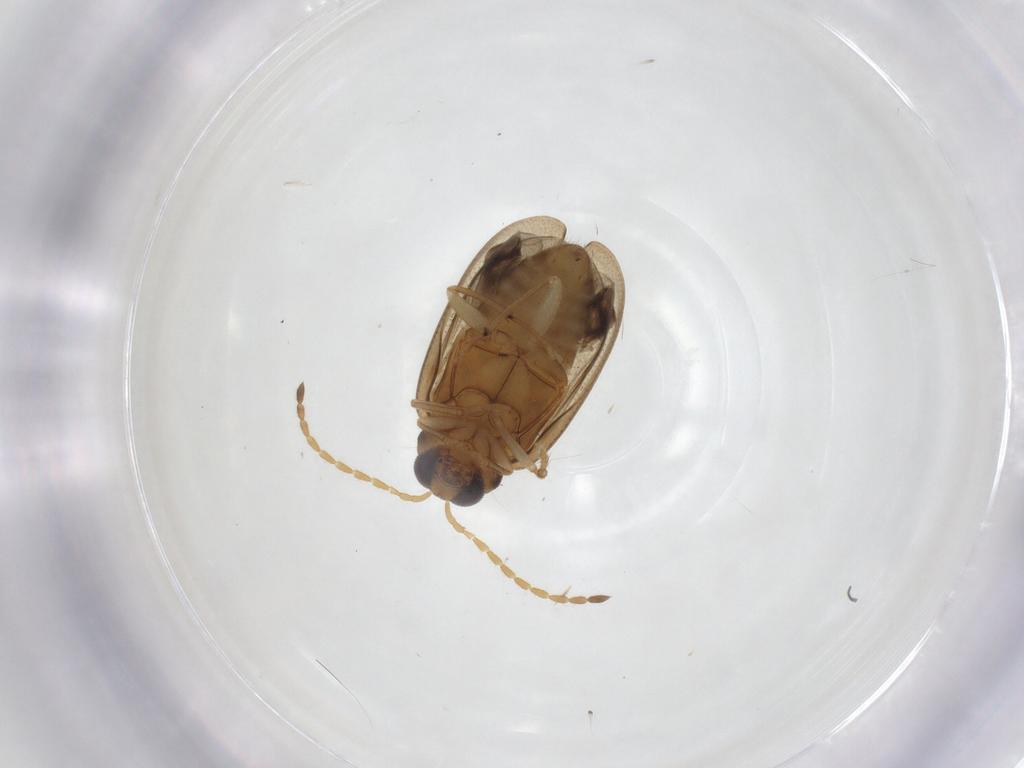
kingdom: Animalia
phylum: Arthropoda
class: Insecta
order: Coleoptera
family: Chrysomelidae
